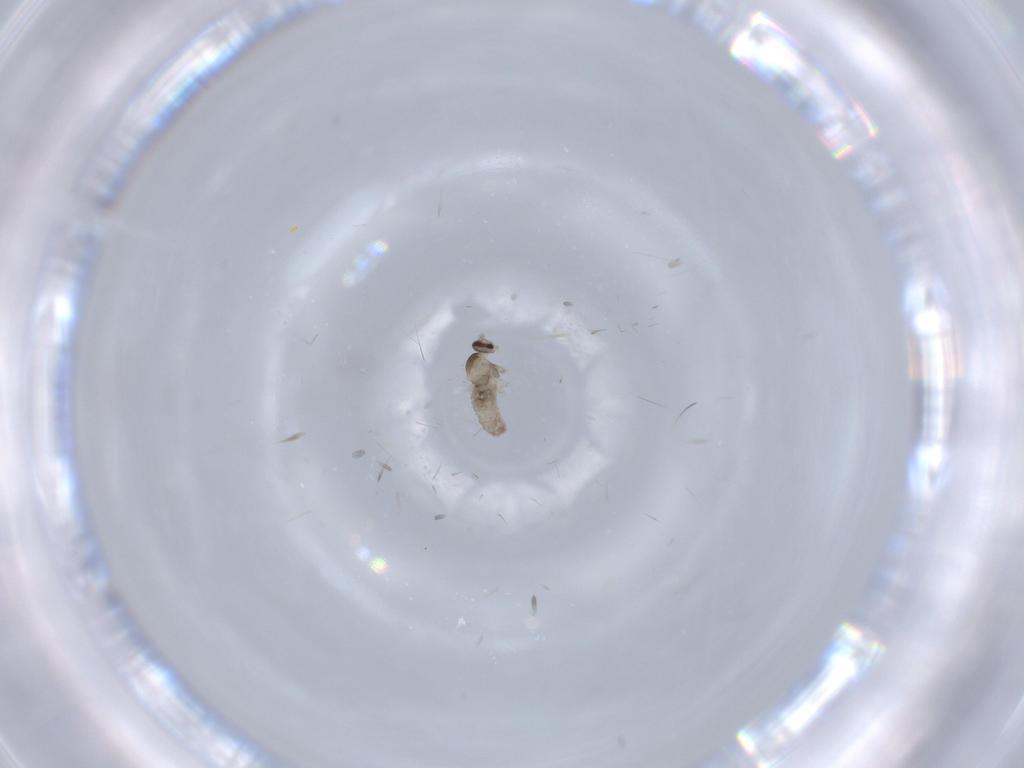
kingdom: Animalia
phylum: Arthropoda
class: Insecta
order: Diptera
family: Cecidomyiidae
